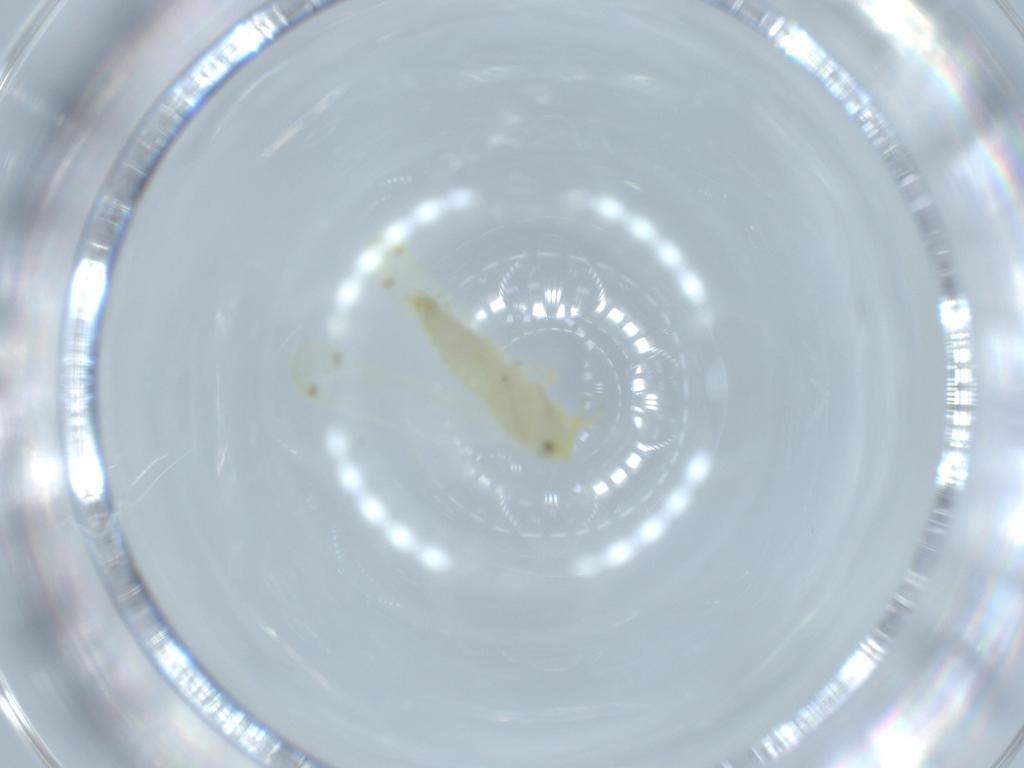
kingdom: Animalia
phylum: Arthropoda
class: Insecta
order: Hemiptera
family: Cicadellidae
